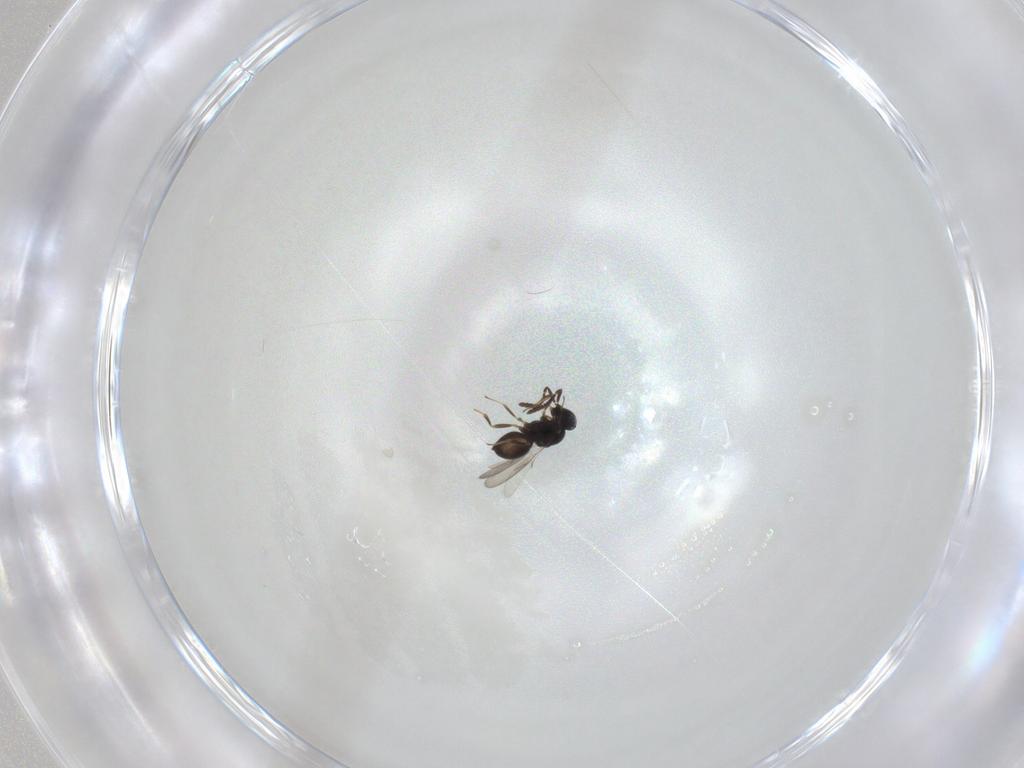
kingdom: Animalia
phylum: Arthropoda
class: Insecta
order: Hymenoptera
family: Scelionidae
